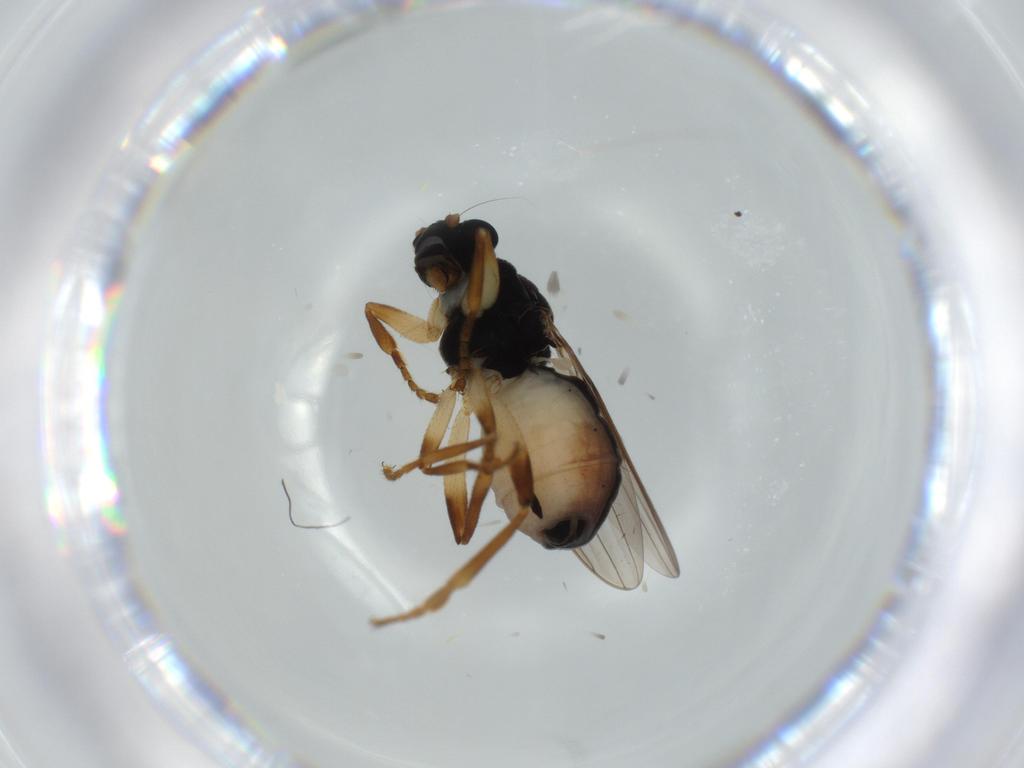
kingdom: Animalia
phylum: Arthropoda
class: Insecta
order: Diptera
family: Sphaeroceridae
